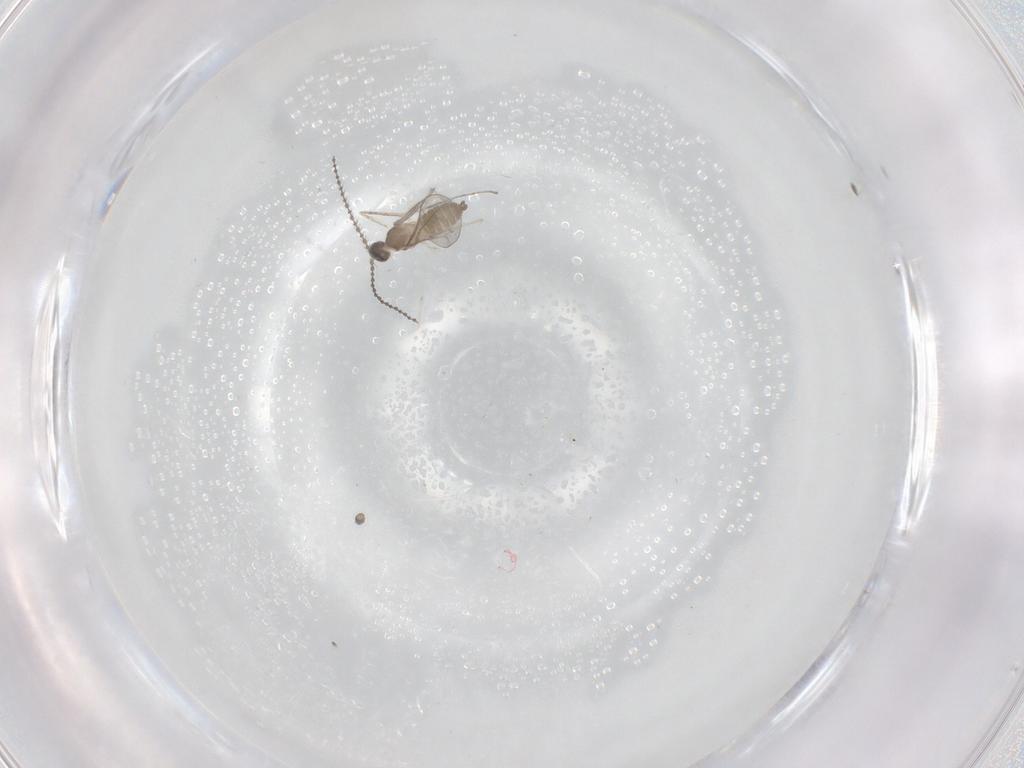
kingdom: Animalia
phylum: Arthropoda
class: Insecta
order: Diptera
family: Cecidomyiidae
